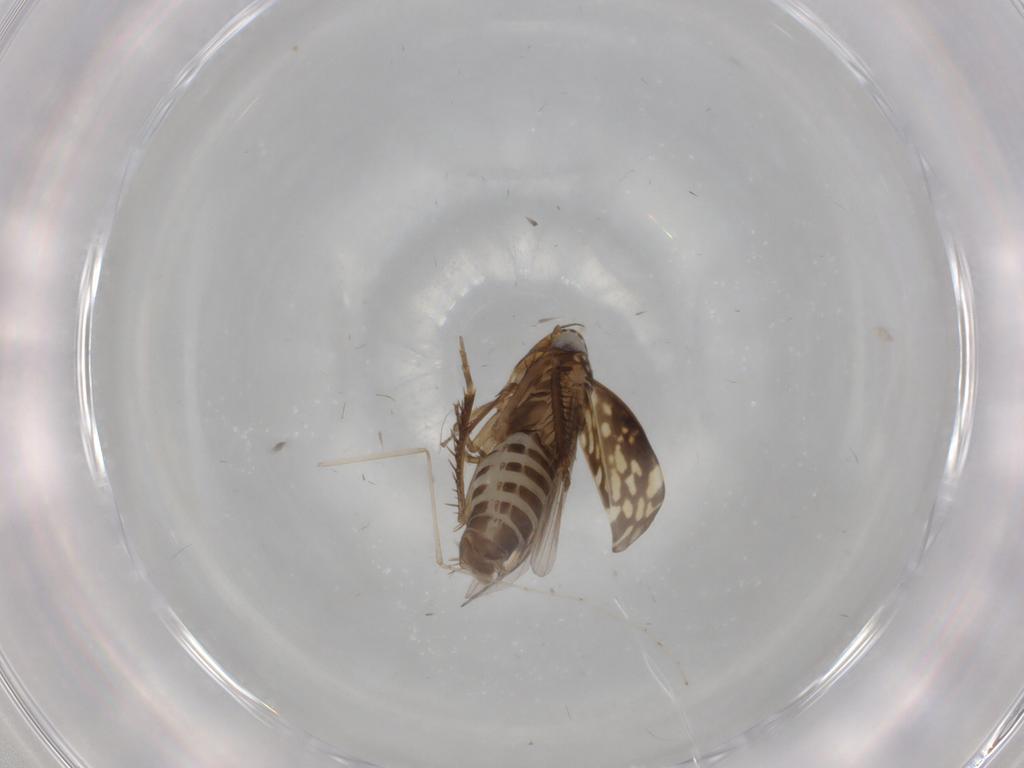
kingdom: Animalia
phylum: Arthropoda
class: Insecta
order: Hemiptera
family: Cicadellidae
